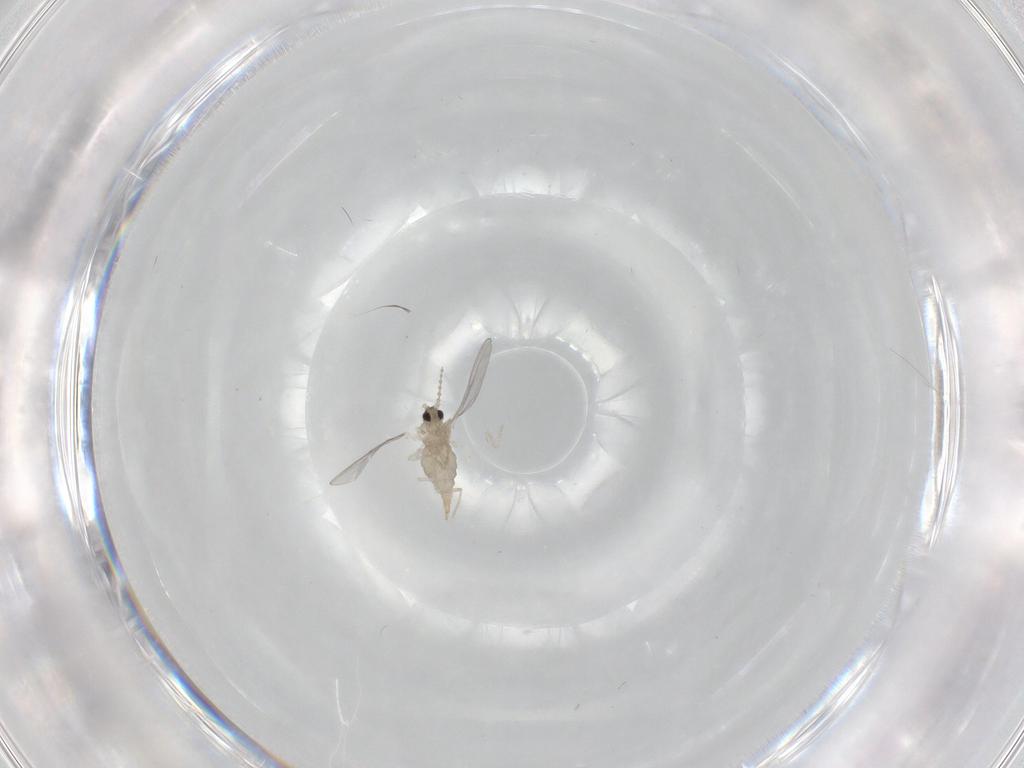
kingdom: Animalia
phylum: Arthropoda
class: Insecta
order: Diptera
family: Cecidomyiidae
